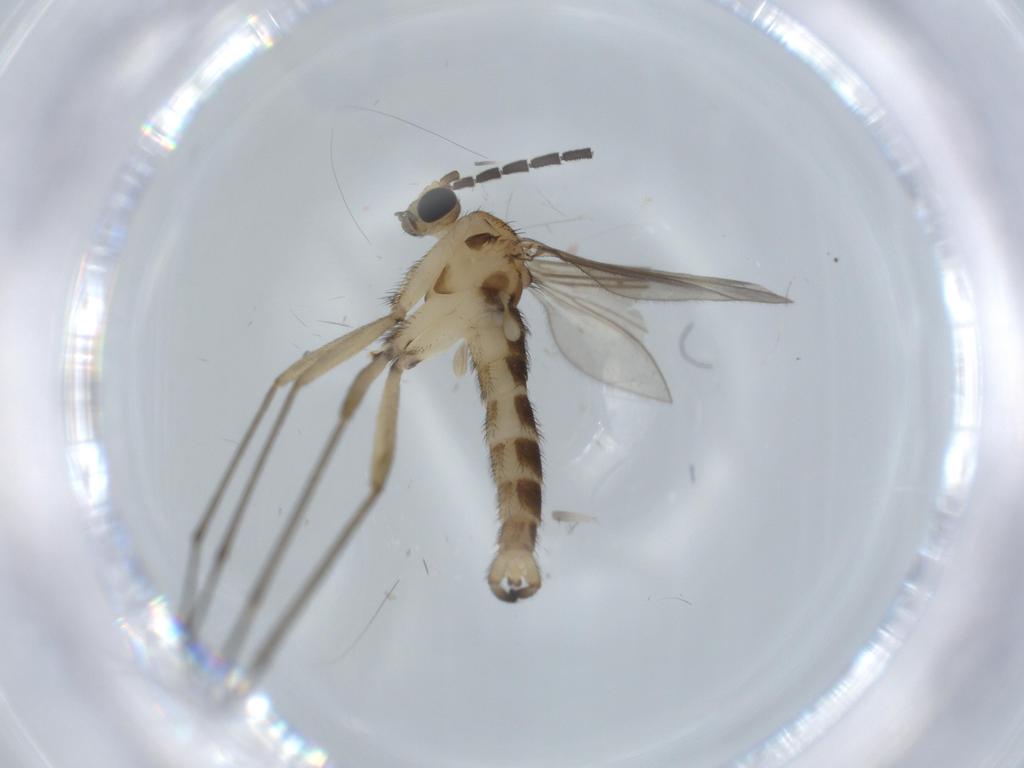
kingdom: Animalia
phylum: Arthropoda
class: Insecta
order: Diptera
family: Sciaridae
